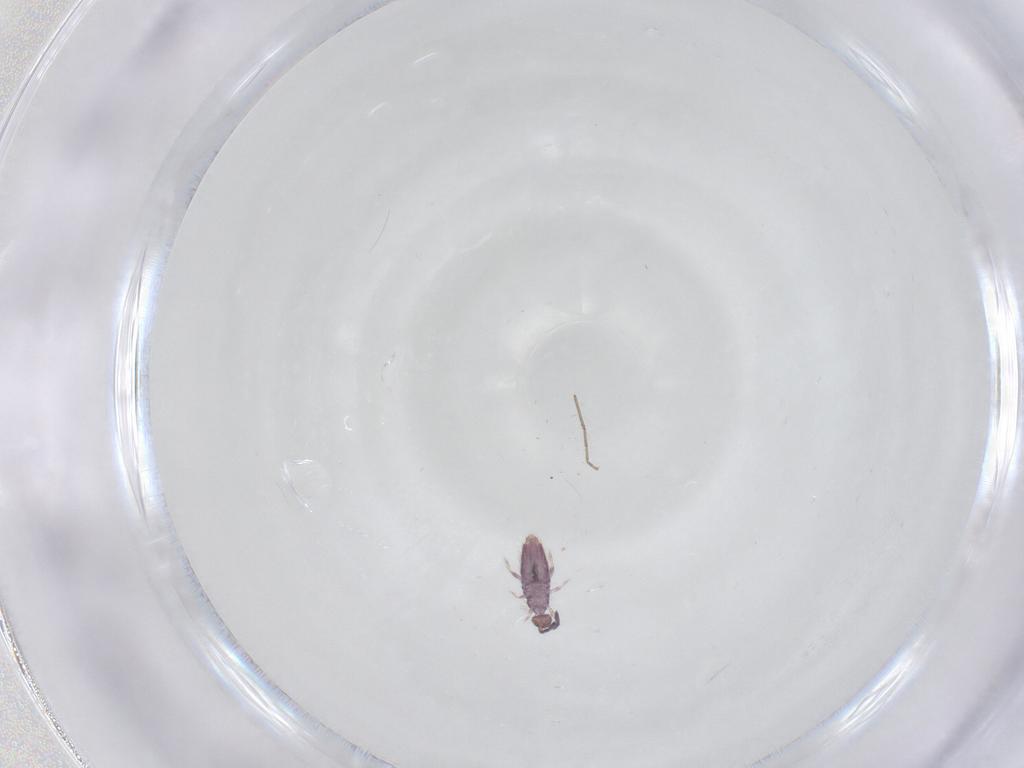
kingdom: Animalia
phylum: Arthropoda
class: Collembola
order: Entomobryomorpha
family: Entomobryidae
